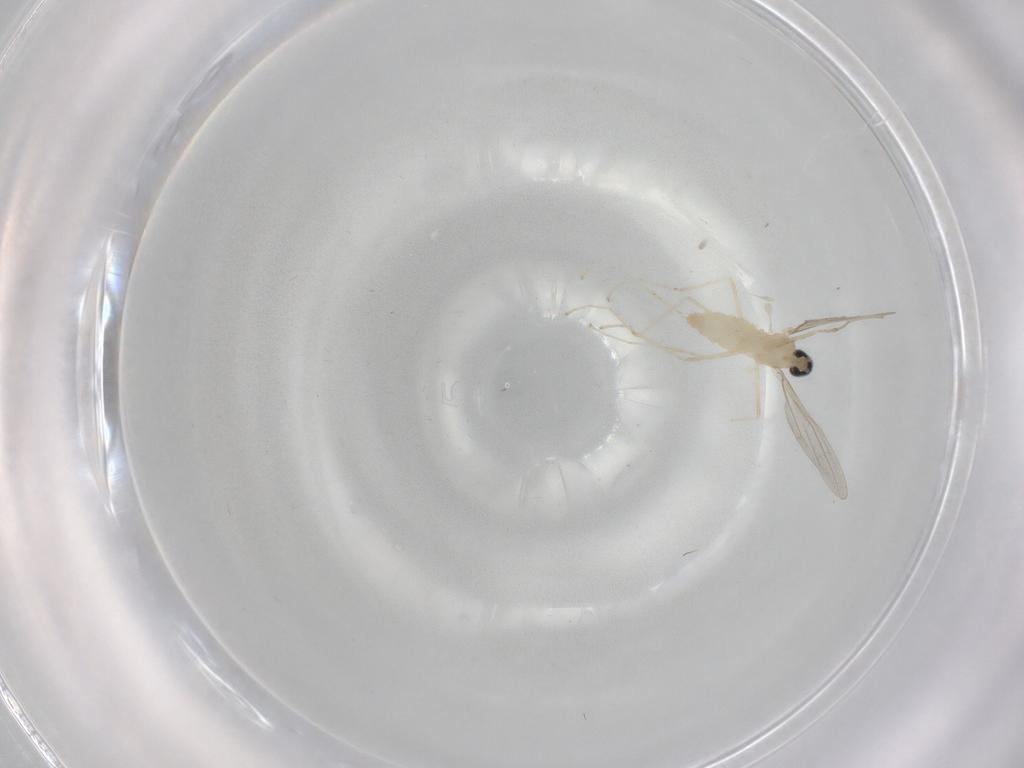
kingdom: Animalia
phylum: Arthropoda
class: Insecta
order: Diptera
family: Cecidomyiidae
